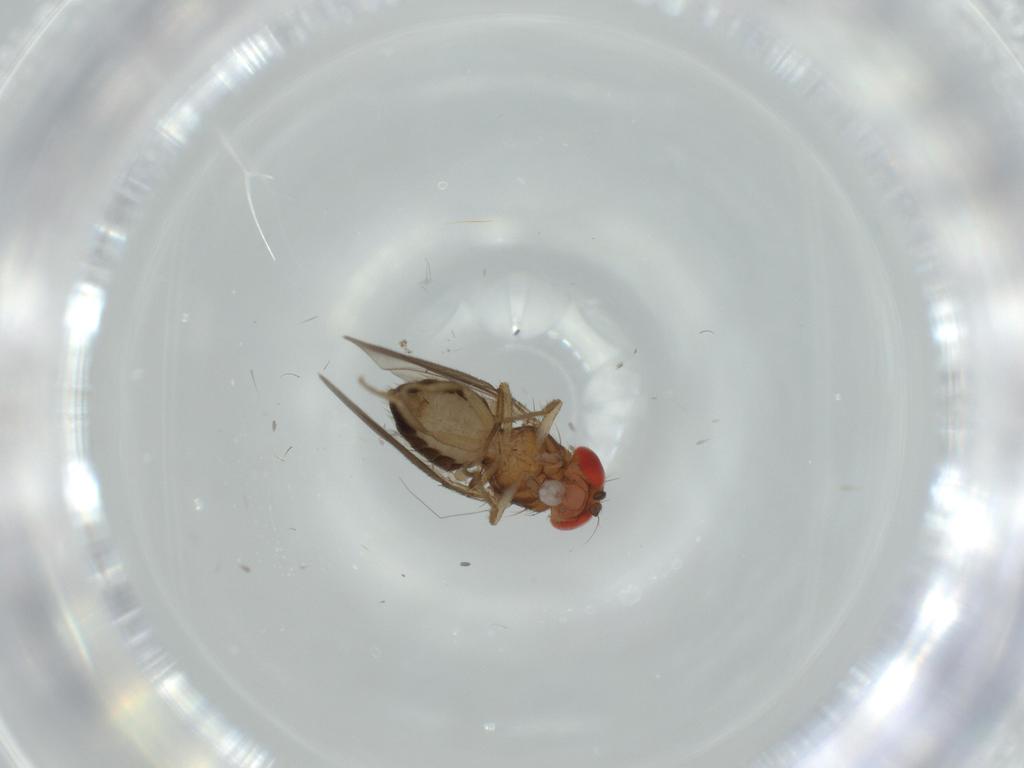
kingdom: Animalia
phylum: Arthropoda
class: Insecta
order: Diptera
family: Drosophilidae
